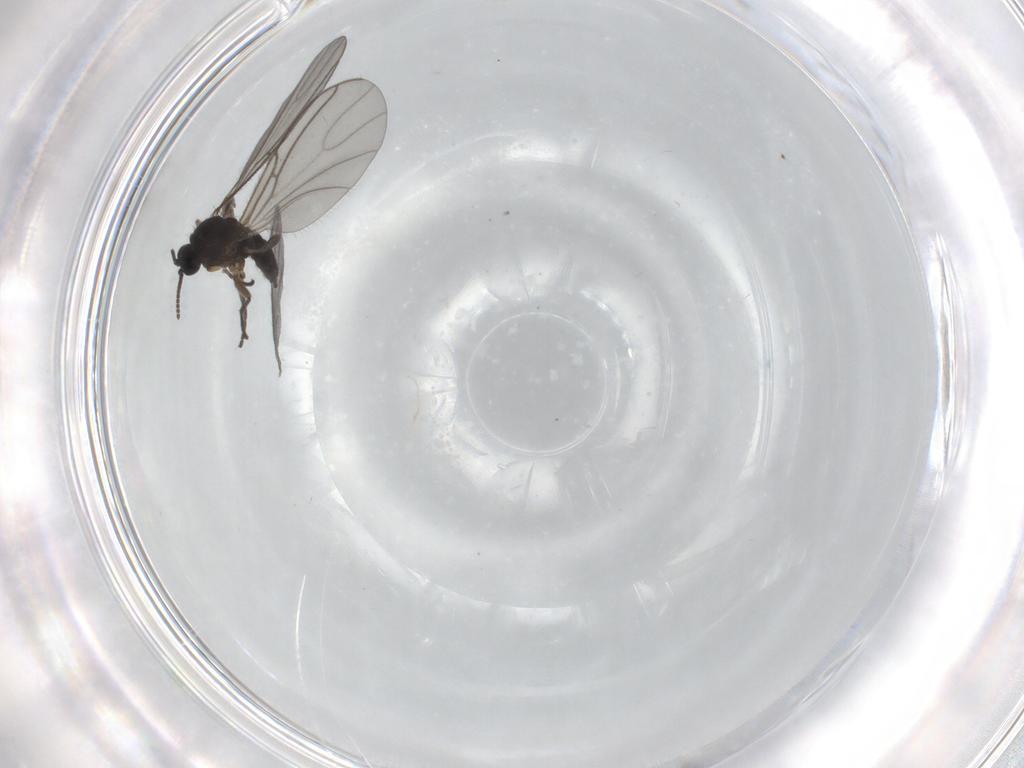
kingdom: Animalia
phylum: Arthropoda
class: Insecta
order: Diptera
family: Sciaridae
